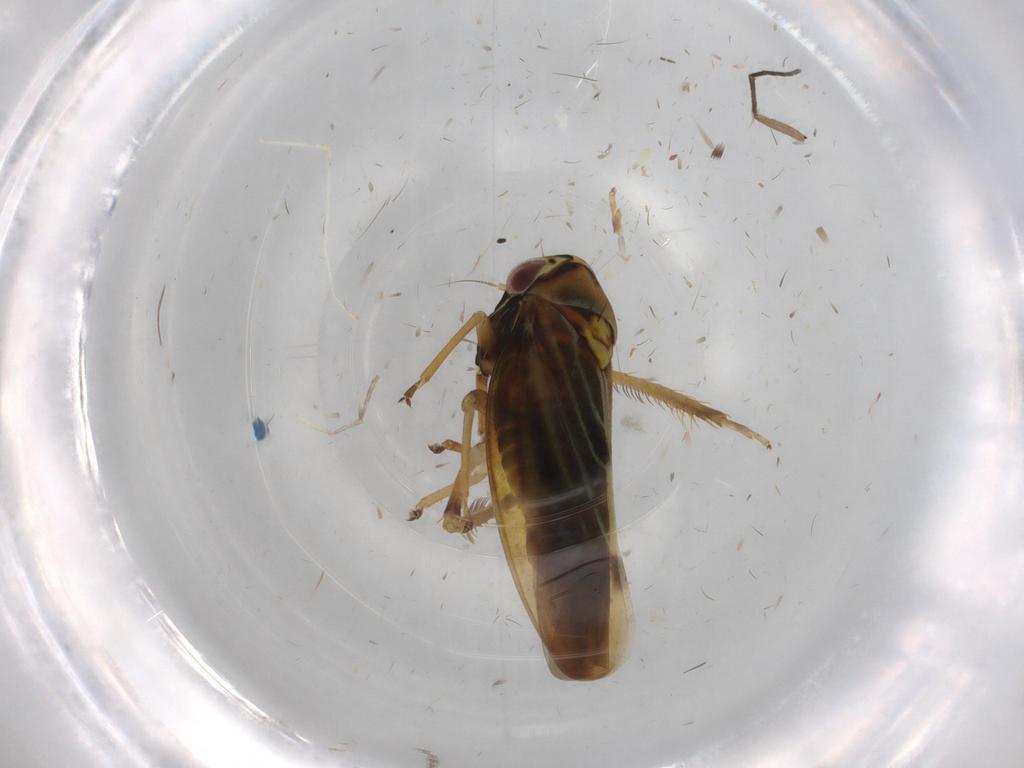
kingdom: Animalia
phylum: Arthropoda
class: Insecta
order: Hemiptera
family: Cicadellidae
